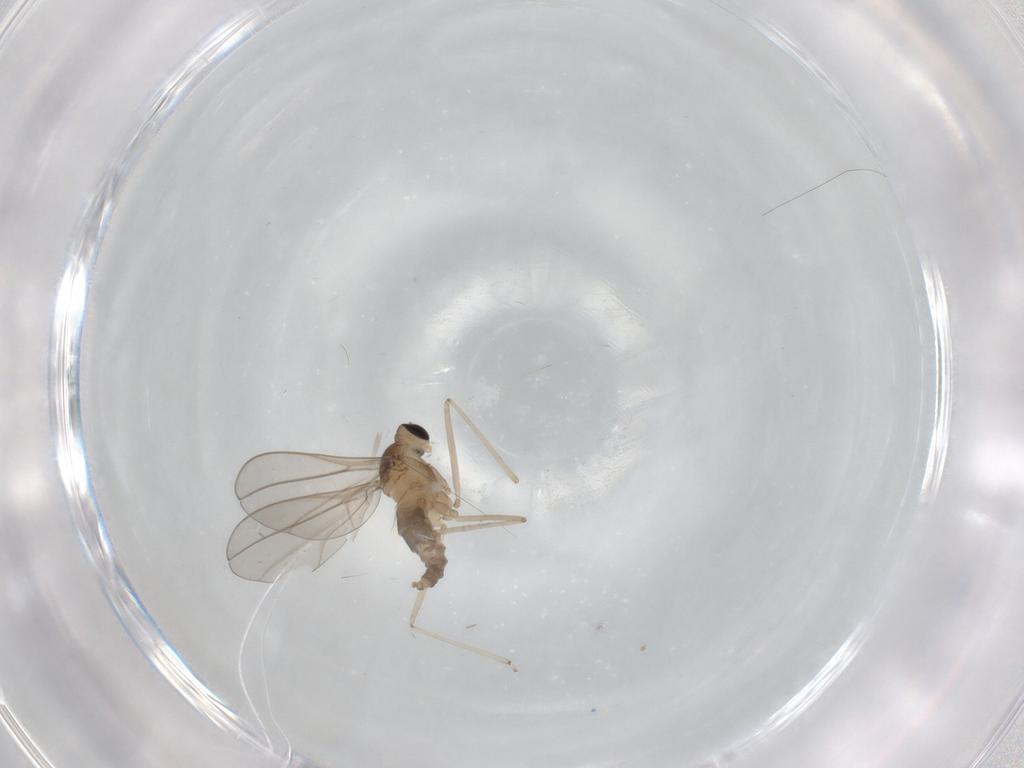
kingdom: Animalia
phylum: Arthropoda
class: Insecta
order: Diptera
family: Cecidomyiidae
